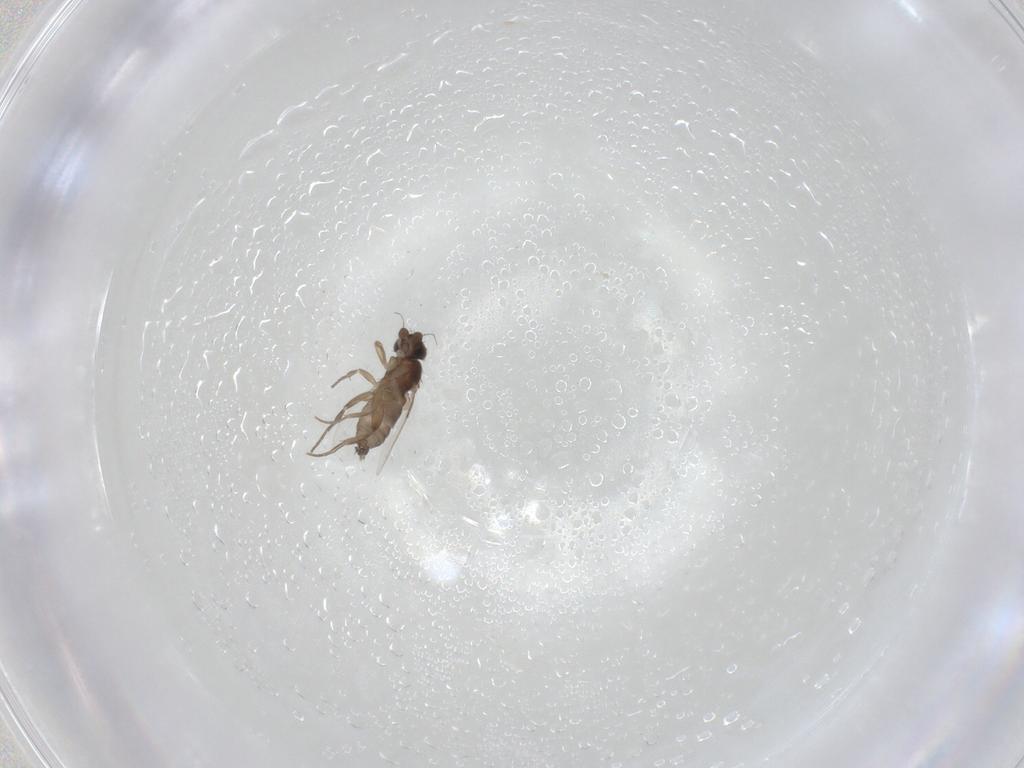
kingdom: Animalia
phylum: Arthropoda
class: Insecta
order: Diptera
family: Phoridae
